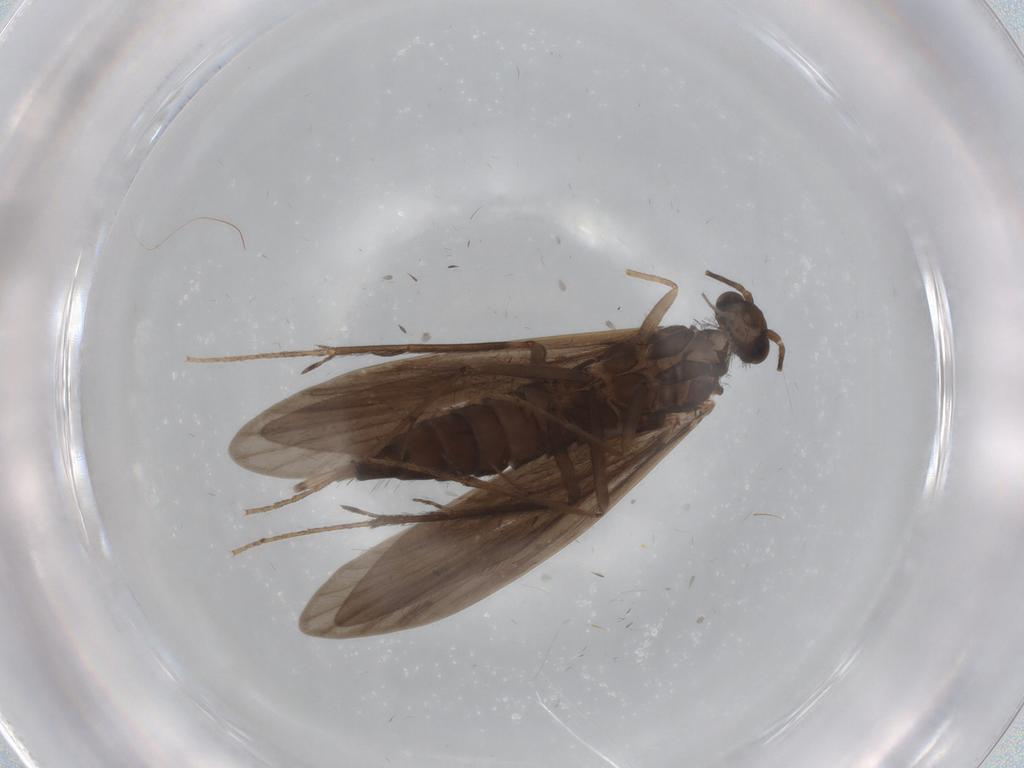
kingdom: Animalia
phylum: Arthropoda
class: Insecta
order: Trichoptera
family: Xiphocentronidae
